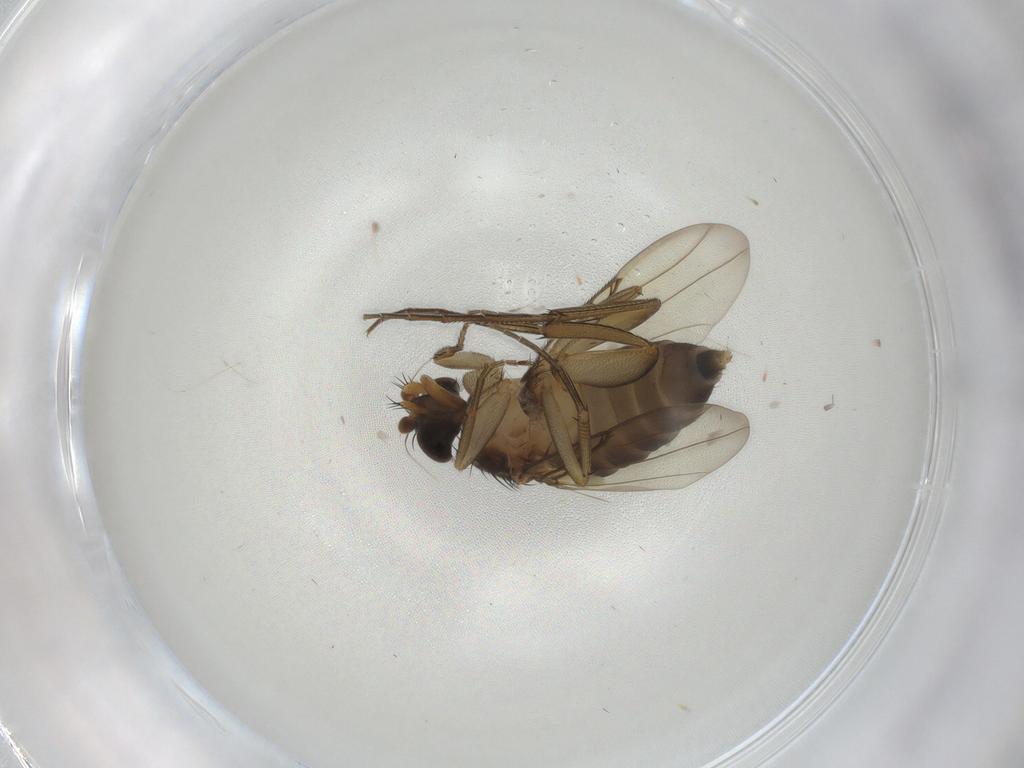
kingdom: Animalia
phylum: Arthropoda
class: Insecta
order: Diptera
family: Phoridae
